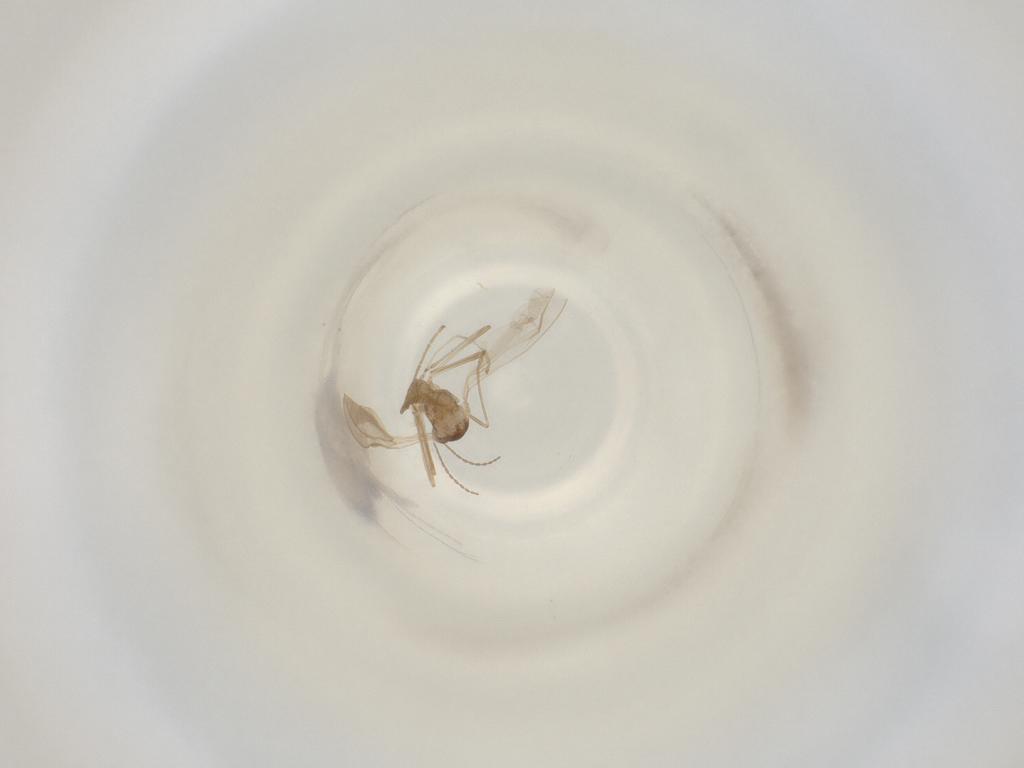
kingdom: Animalia
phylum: Arthropoda
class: Insecta
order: Diptera
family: Cecidomyiidae
